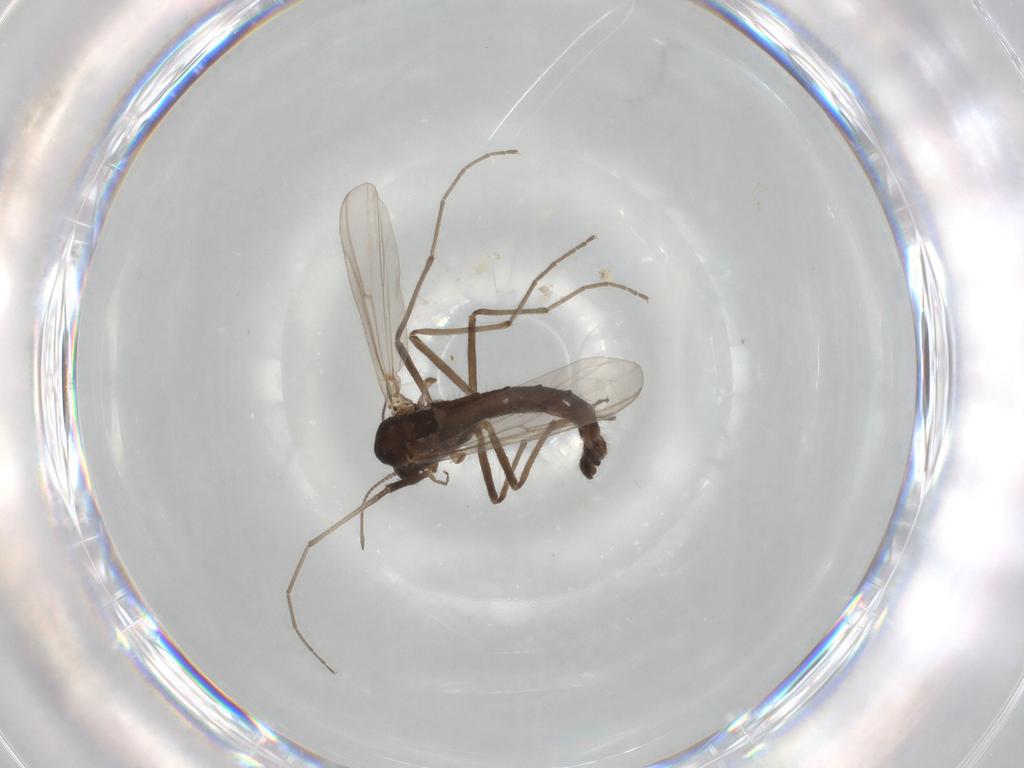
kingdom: Animalia
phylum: Arthropoda
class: Insecta
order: Diptera
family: Chironomidae
